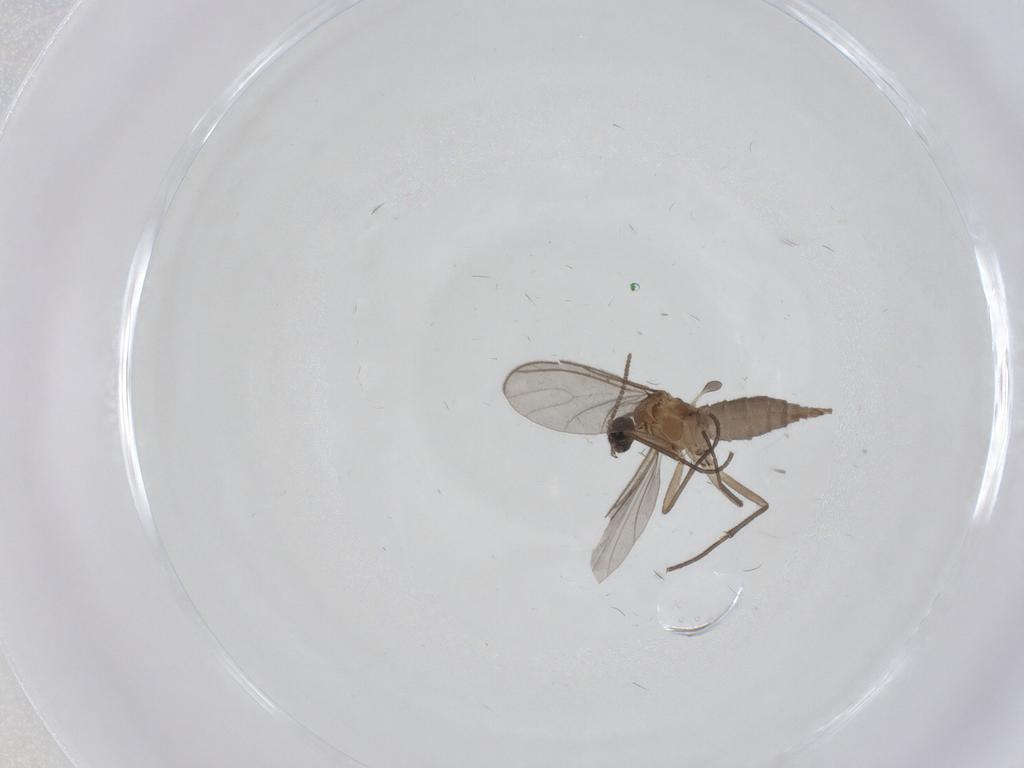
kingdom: Animalia
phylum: Arthropoda
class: Insecta
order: Diptera
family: Sciaridae
